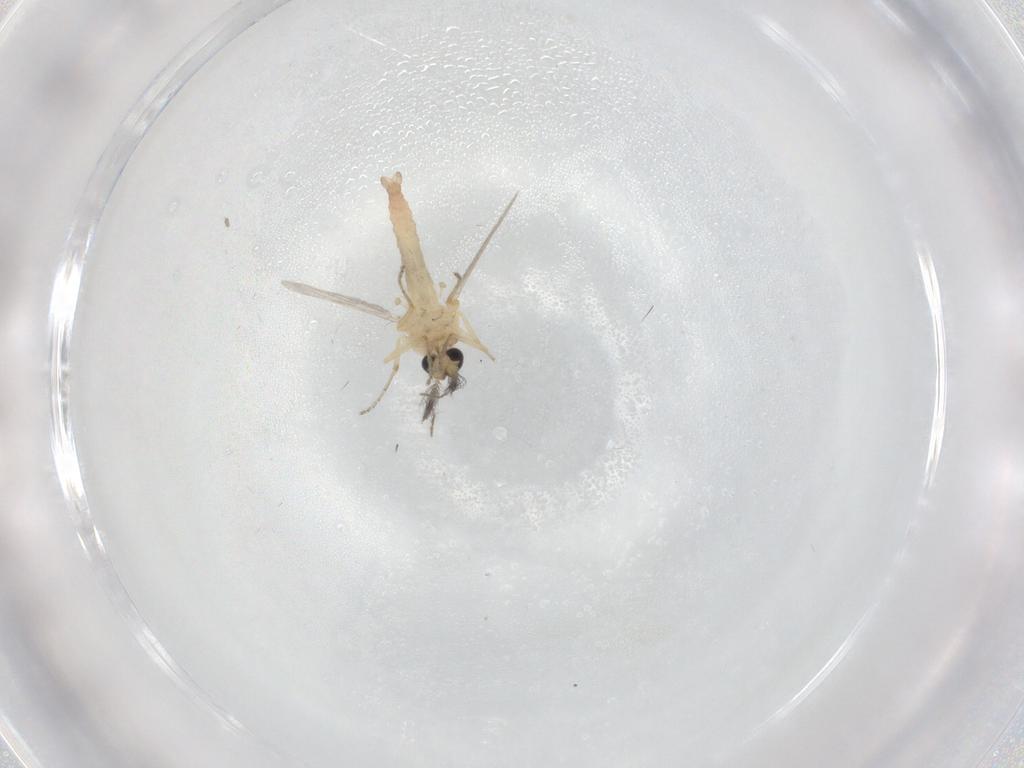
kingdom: Animalia
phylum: Arthropoda
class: Insecta
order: Diptera
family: Ceratopogonidae
